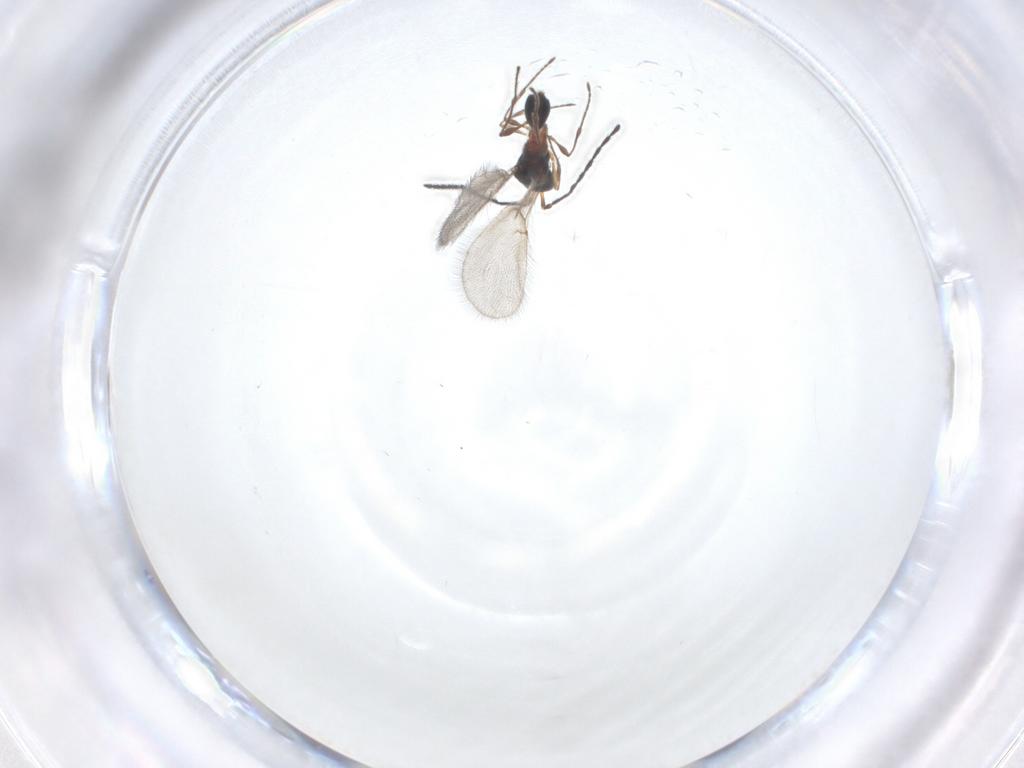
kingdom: Animalia
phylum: Arthropoda
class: Insecta
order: Hymenoptera
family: Diapriidae
